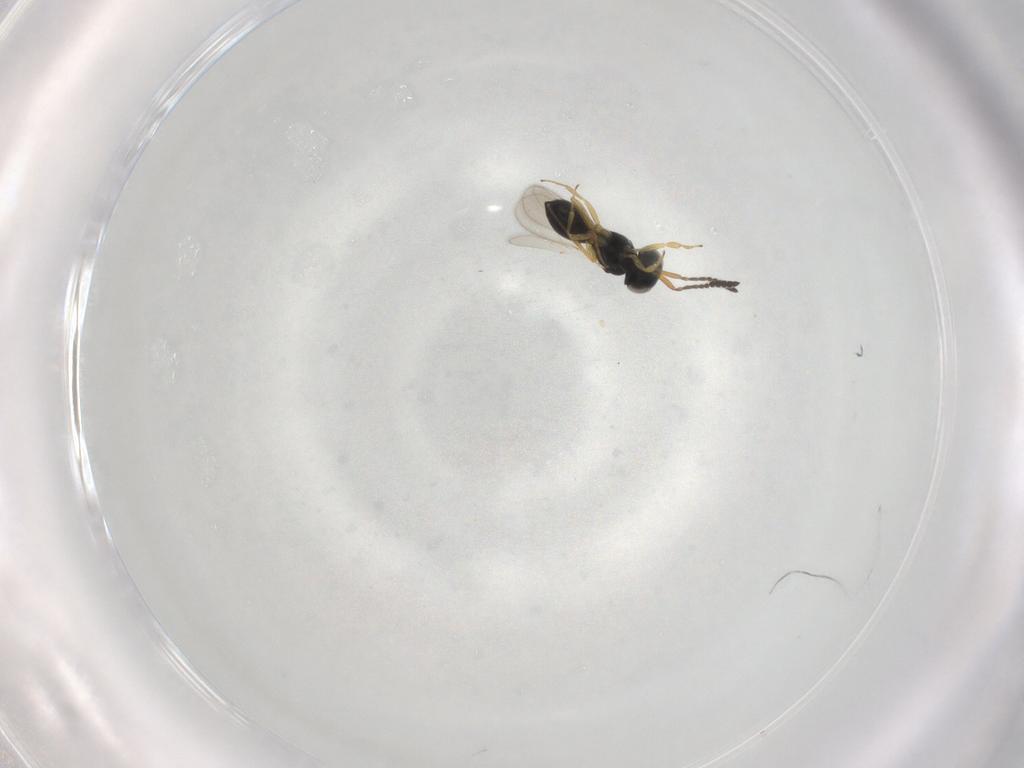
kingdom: Animalia
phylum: Arthropoda
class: Insecta
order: Hymenoptera
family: Scelionidae
